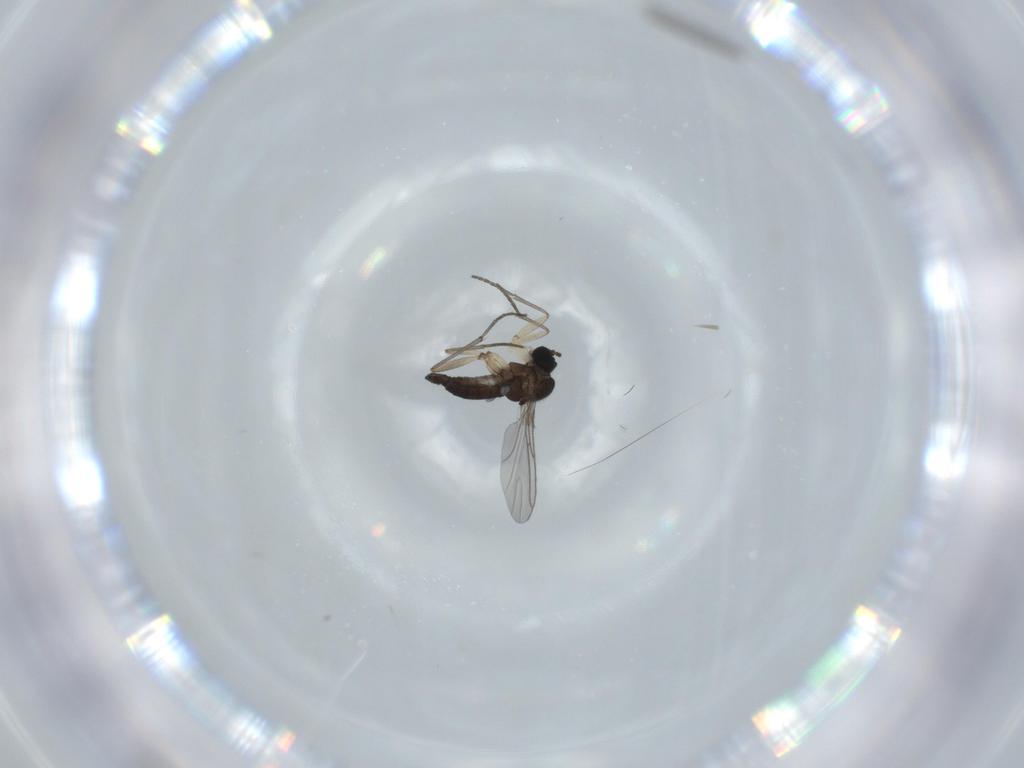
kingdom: Animalia
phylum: Arthropoda
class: Insecta
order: Diptera
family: Sciaridae
